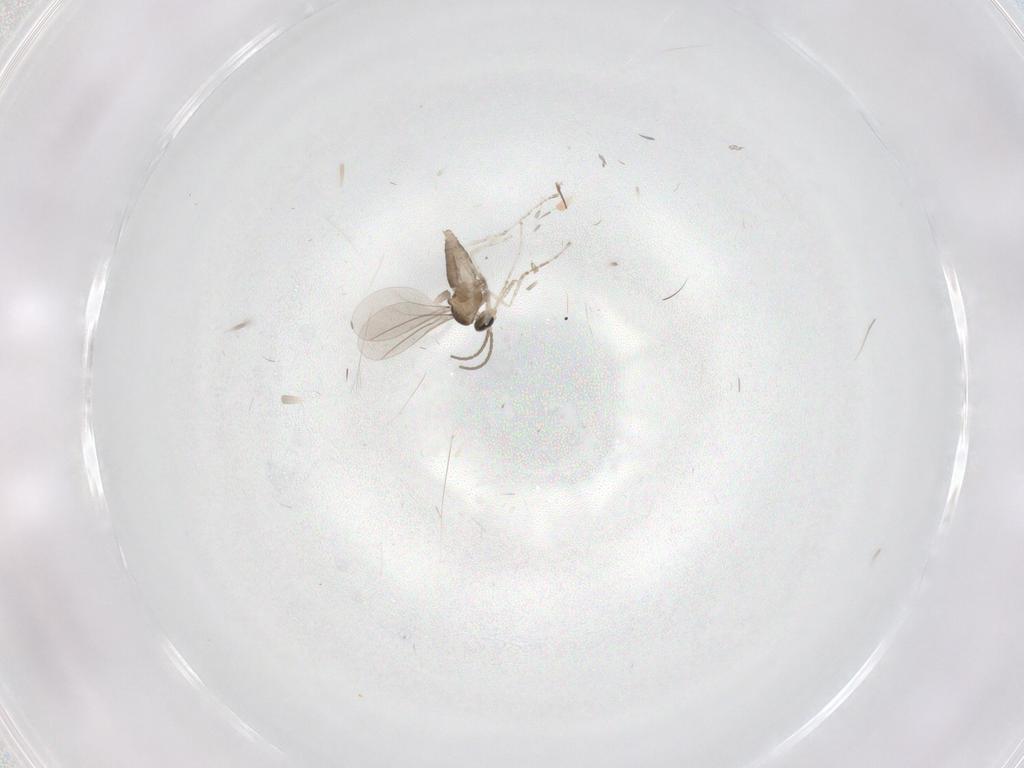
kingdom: Animalia
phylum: Arthropoda
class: Insecta
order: Diptera
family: Cecidomyiidae
